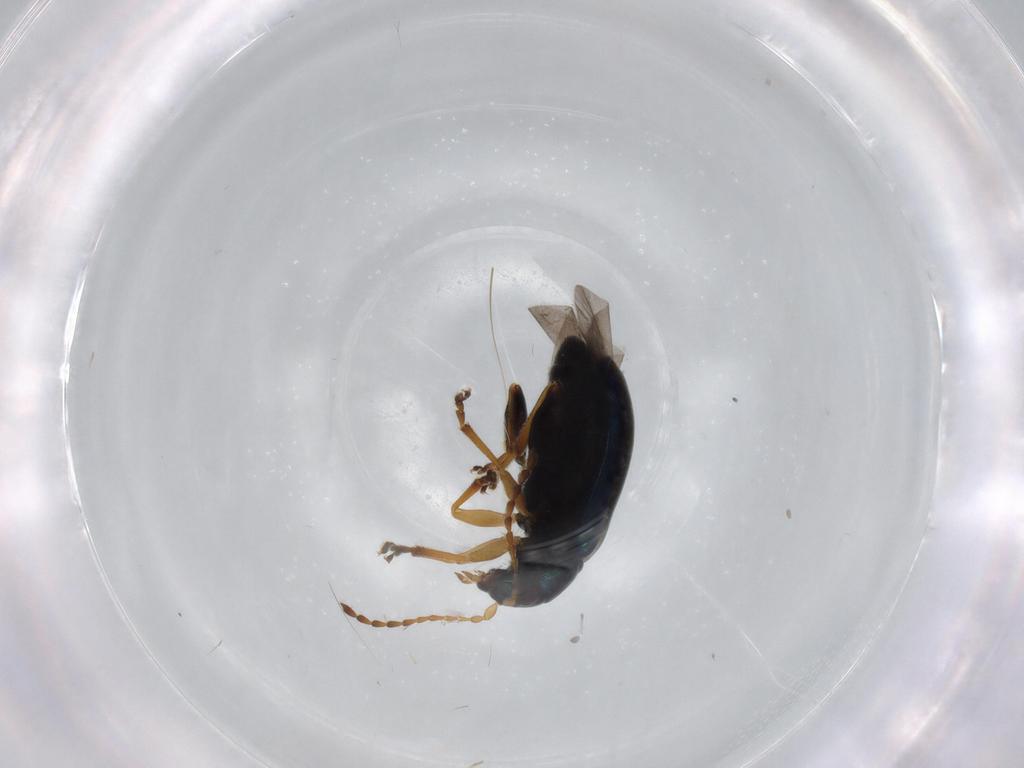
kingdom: Animalia
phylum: Arthropoda
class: Insecta
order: Coleoptera
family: Chrysomelidae
